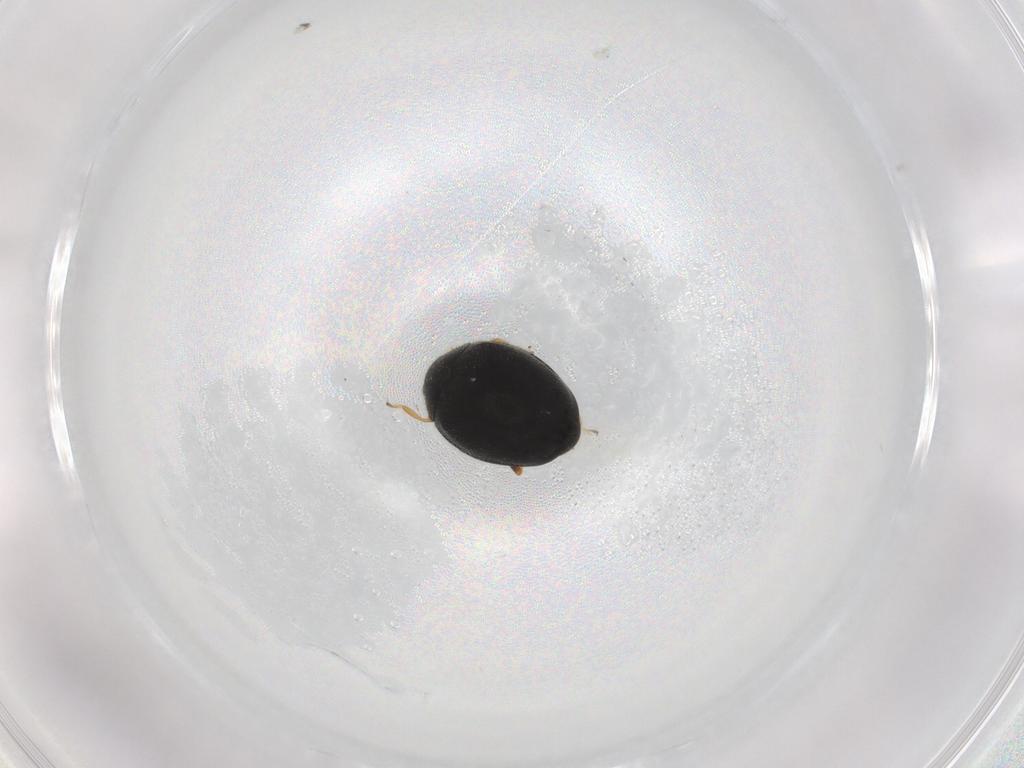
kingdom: Animalia
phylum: Arthropoda
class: Insecta
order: Coleoptera
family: Coccinellidae
